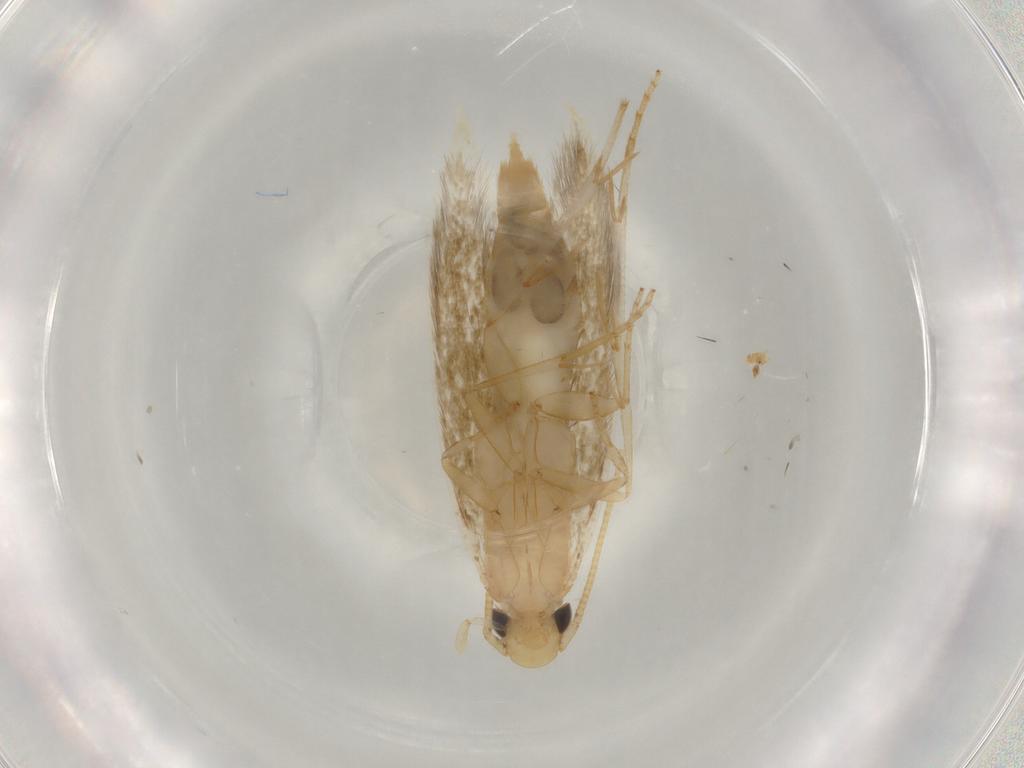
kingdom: Animalia
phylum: Arthropoda
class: Insecta
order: Lepidoptera
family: Tineidae
